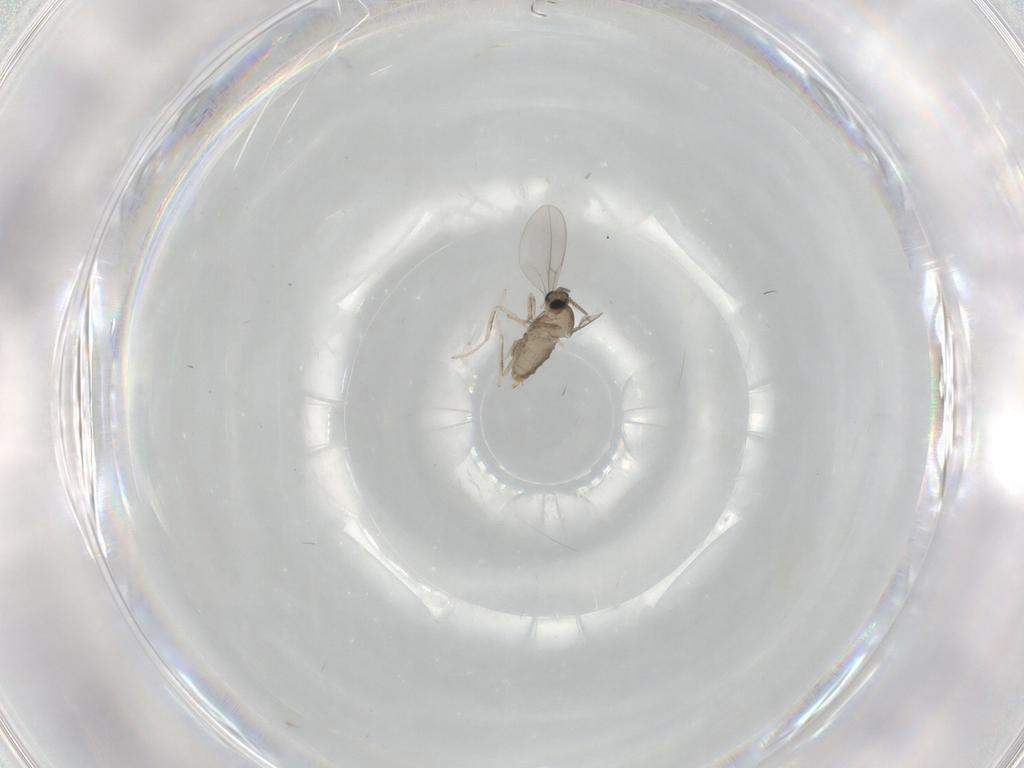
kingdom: Animalia
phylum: Arthropoda
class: Insecta
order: Diptera
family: Cecidomyiidae
